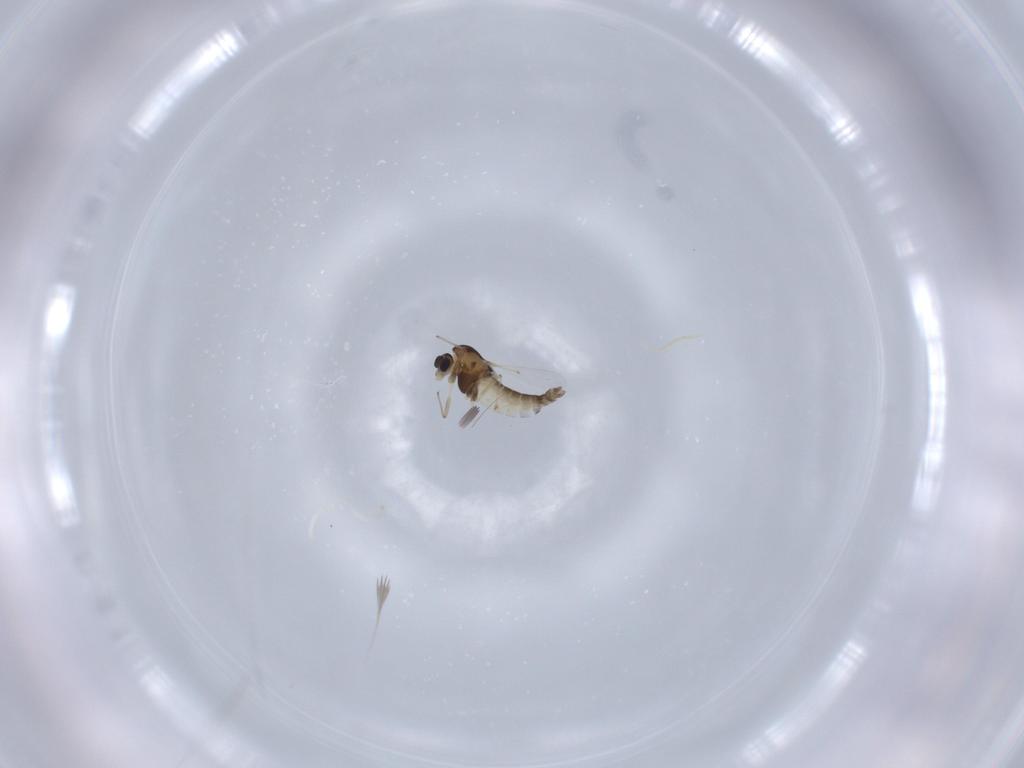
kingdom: Animalia
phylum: Arthropoda
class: Insecta
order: Diptera
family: Chironomidae
